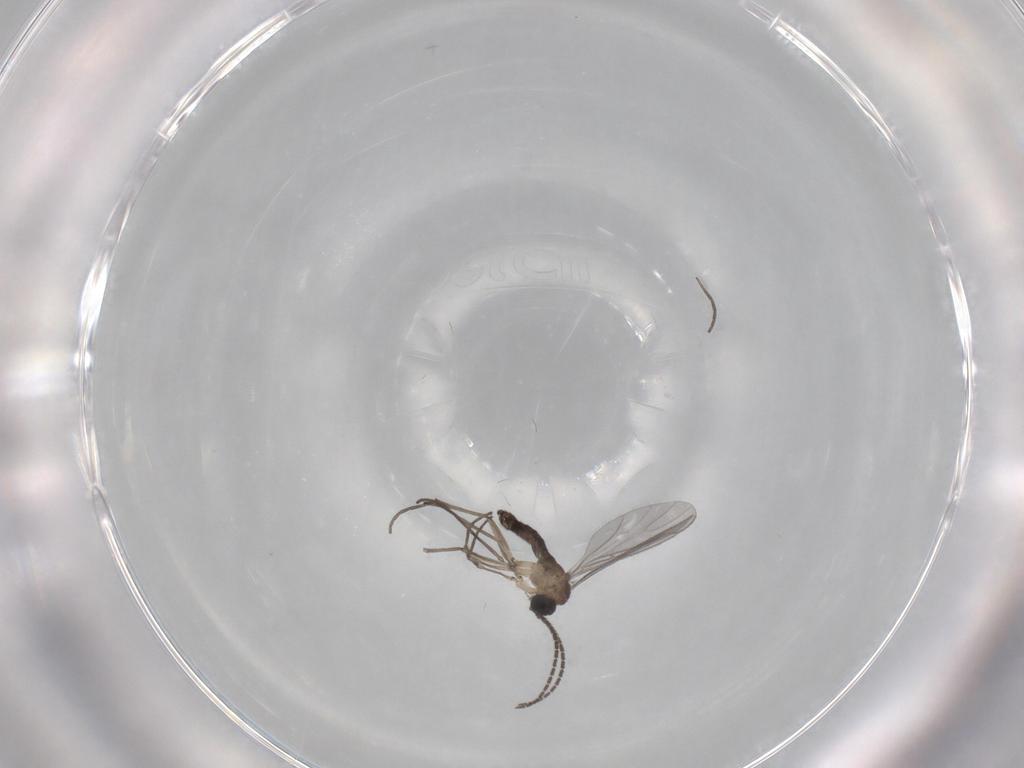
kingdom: Animalia
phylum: Arthropoda
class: Insecta
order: Diptera
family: Sciaridae
